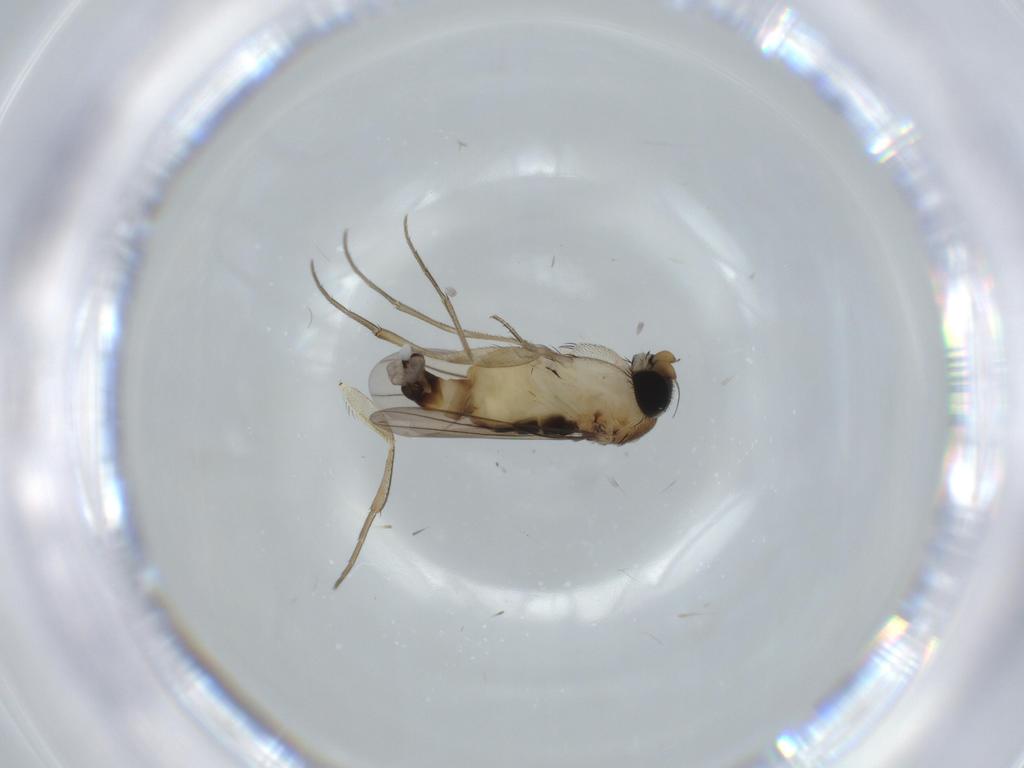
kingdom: Animalia
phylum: Arthropoda
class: Insecta
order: Diptera
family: Phoridae
